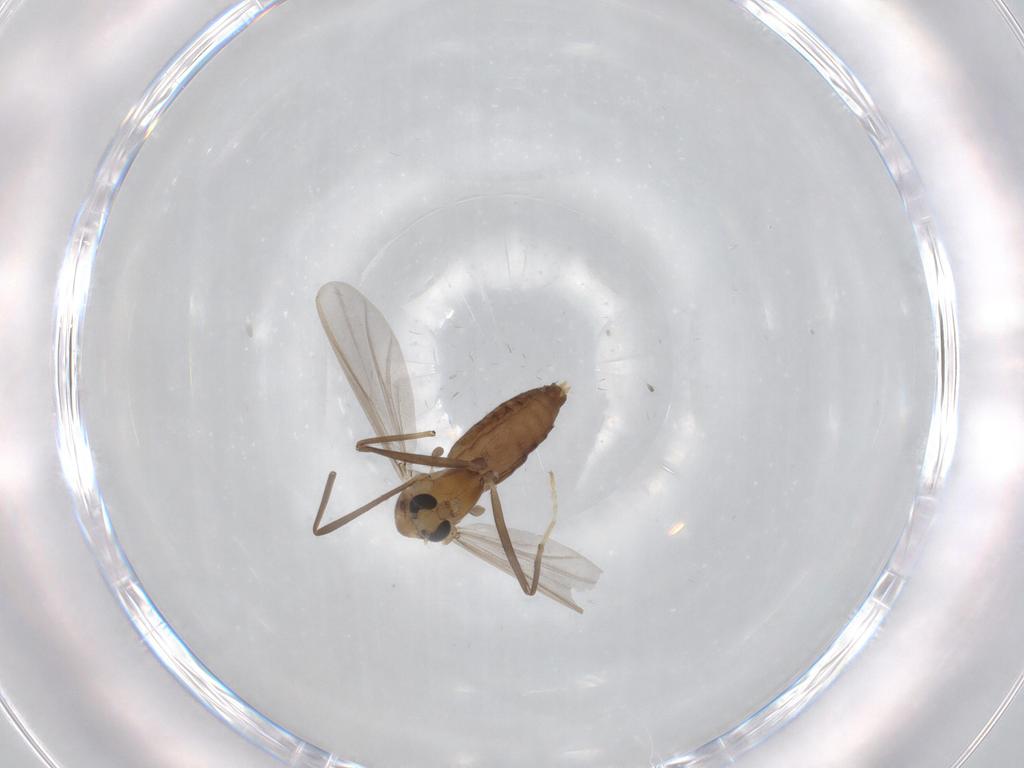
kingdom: Animalia
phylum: Arthropoda
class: Insecta
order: Diptera
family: Chironomidae
